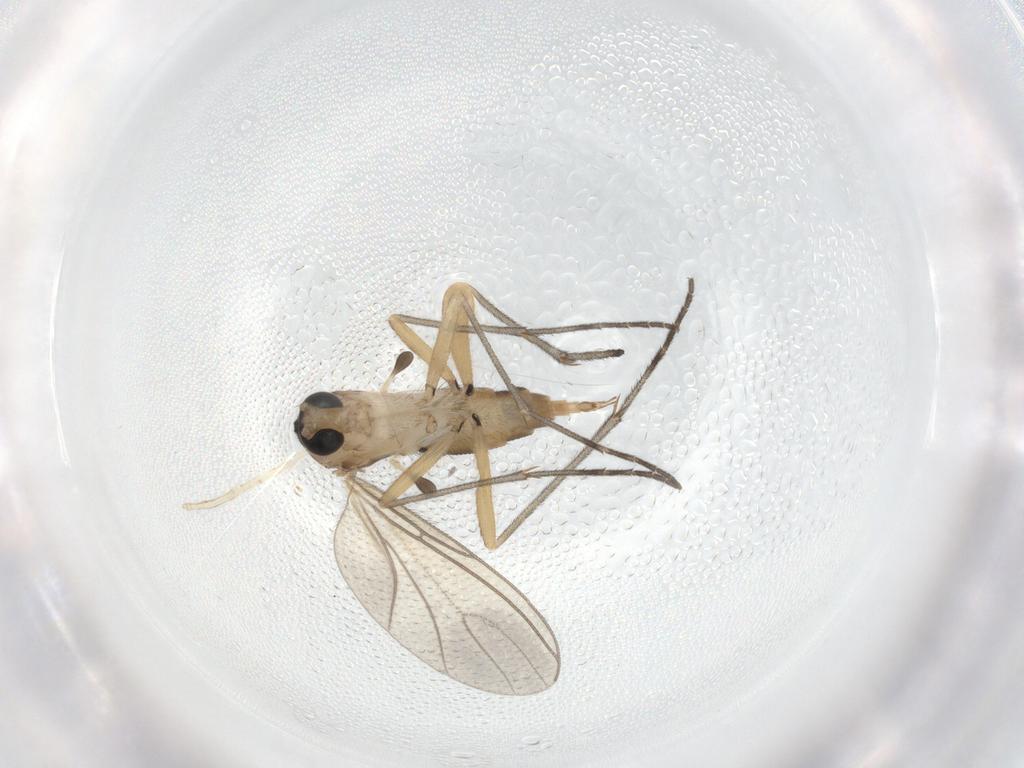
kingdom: Animalia
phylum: Arthropoda
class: Insecta
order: Diptera
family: Chironomidae
